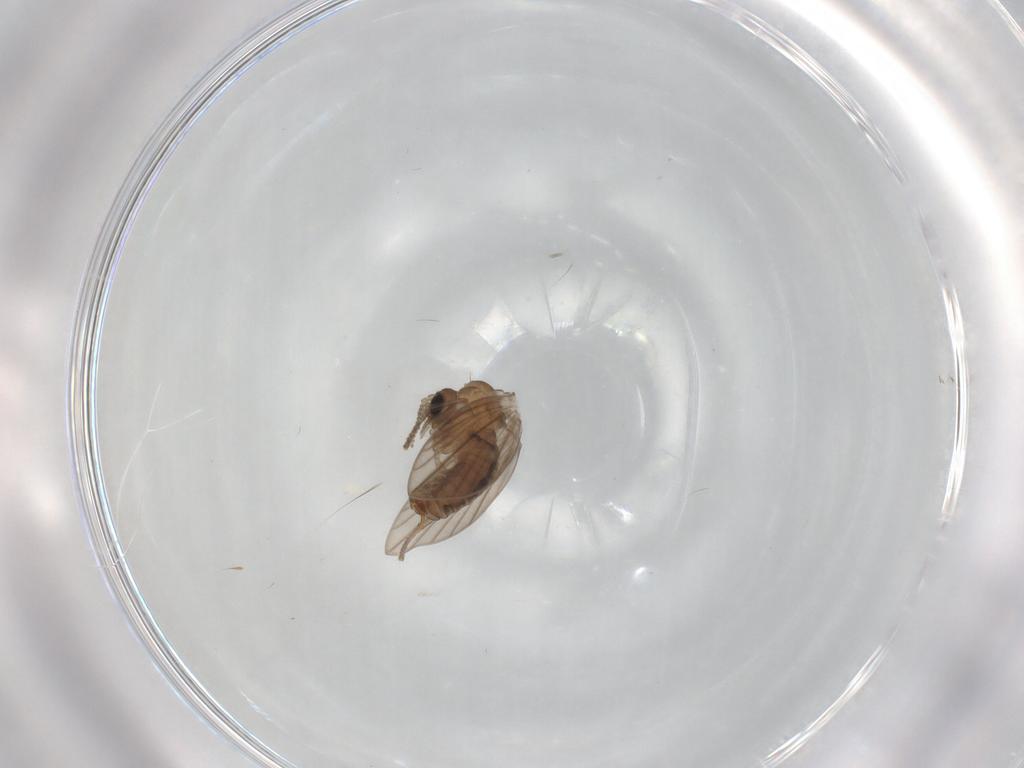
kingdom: Animalia
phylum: Arthropoda
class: Insecta
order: Diptera
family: Psychodidae
